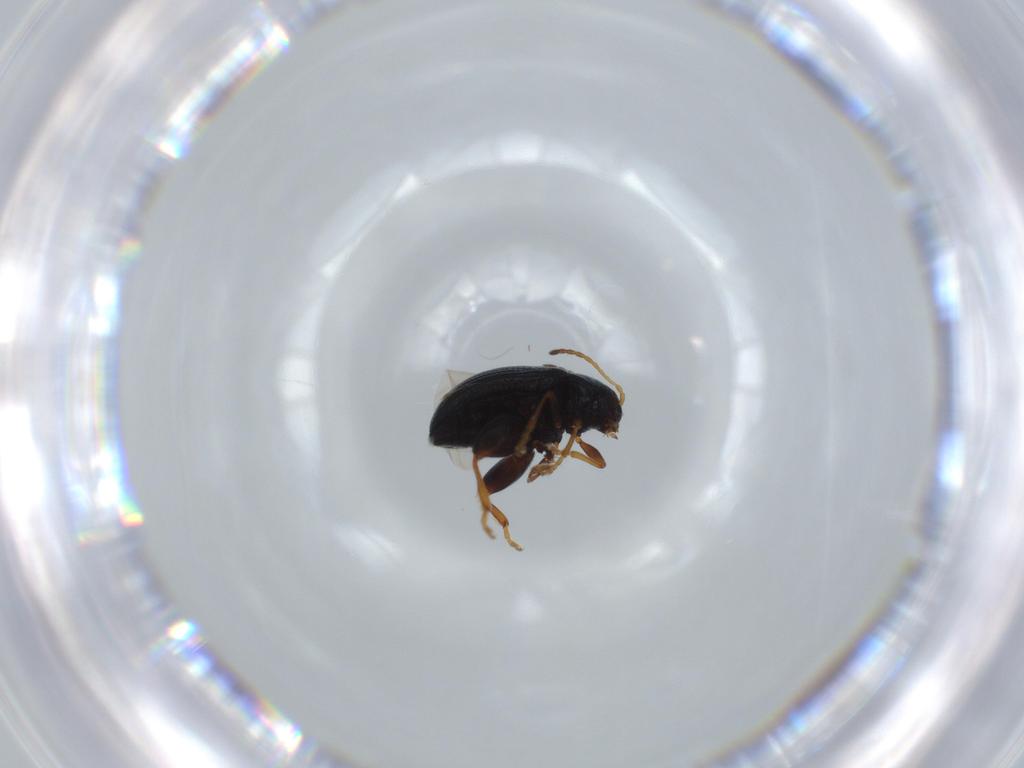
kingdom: Animalia
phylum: Arthropoda
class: Insecta
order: Coleoptera
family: Chrysomelidae
